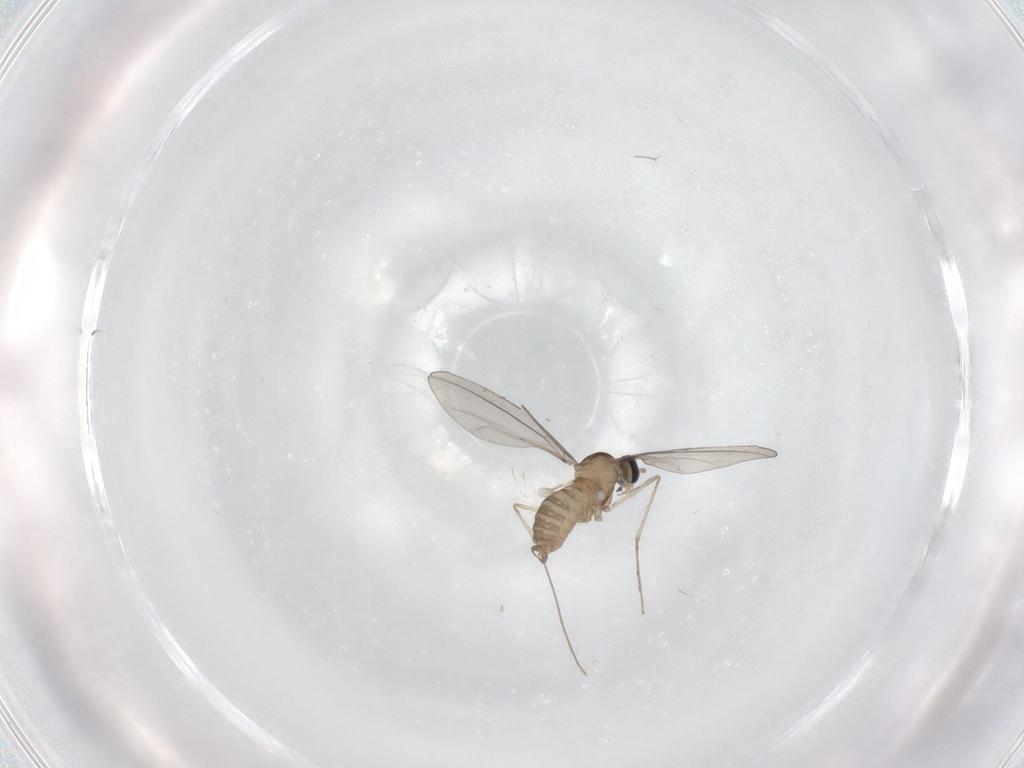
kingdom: Animalia
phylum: Arthropoda
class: Insecta
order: Diptera
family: Cecidomyiidae
